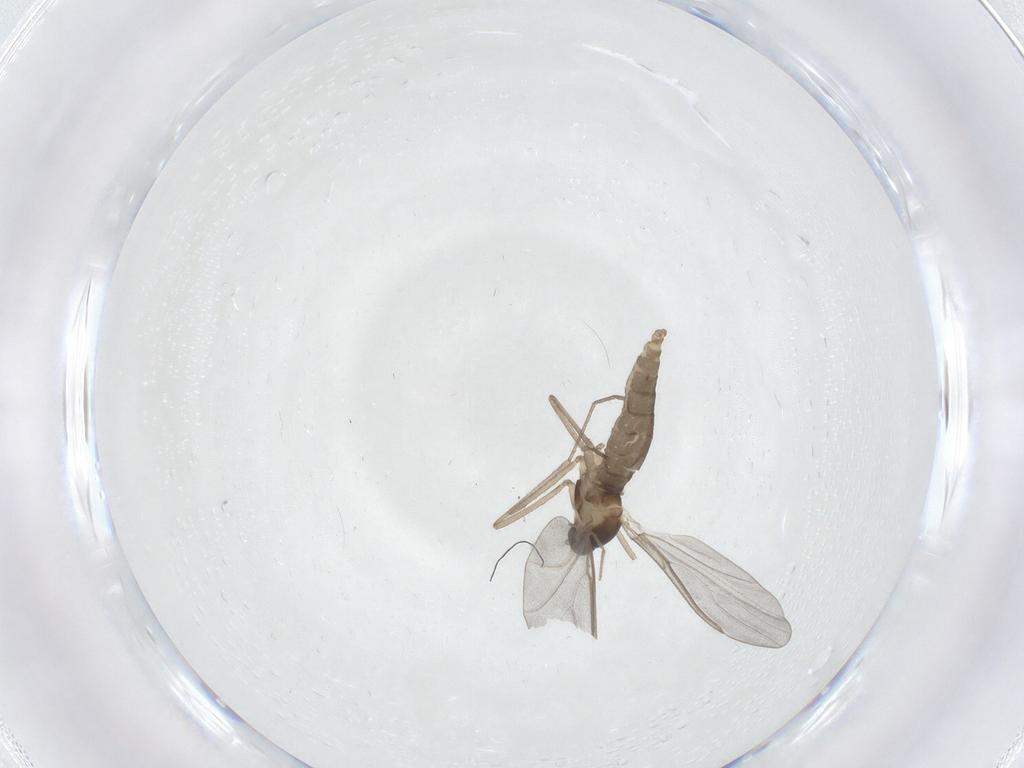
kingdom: Animalia
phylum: Arthropoda
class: Insecta
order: Diptera
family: Cecidomyiidae
